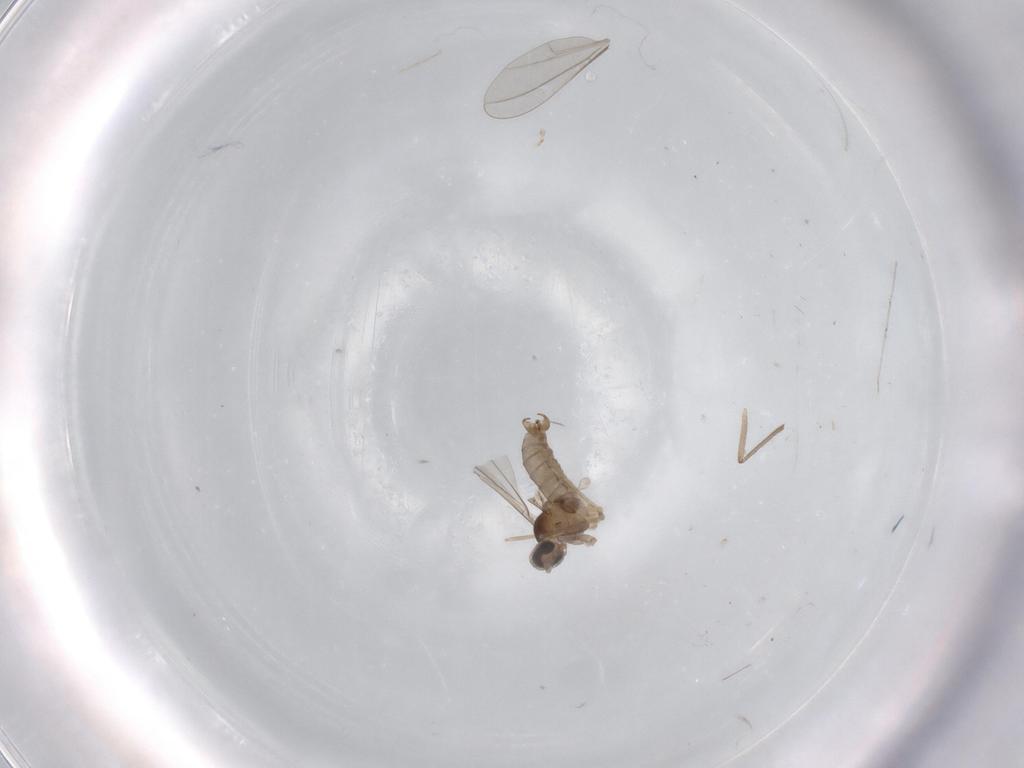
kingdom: Animalia
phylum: Arthropoda
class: Insecta
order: Diptera
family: Chironomidae
